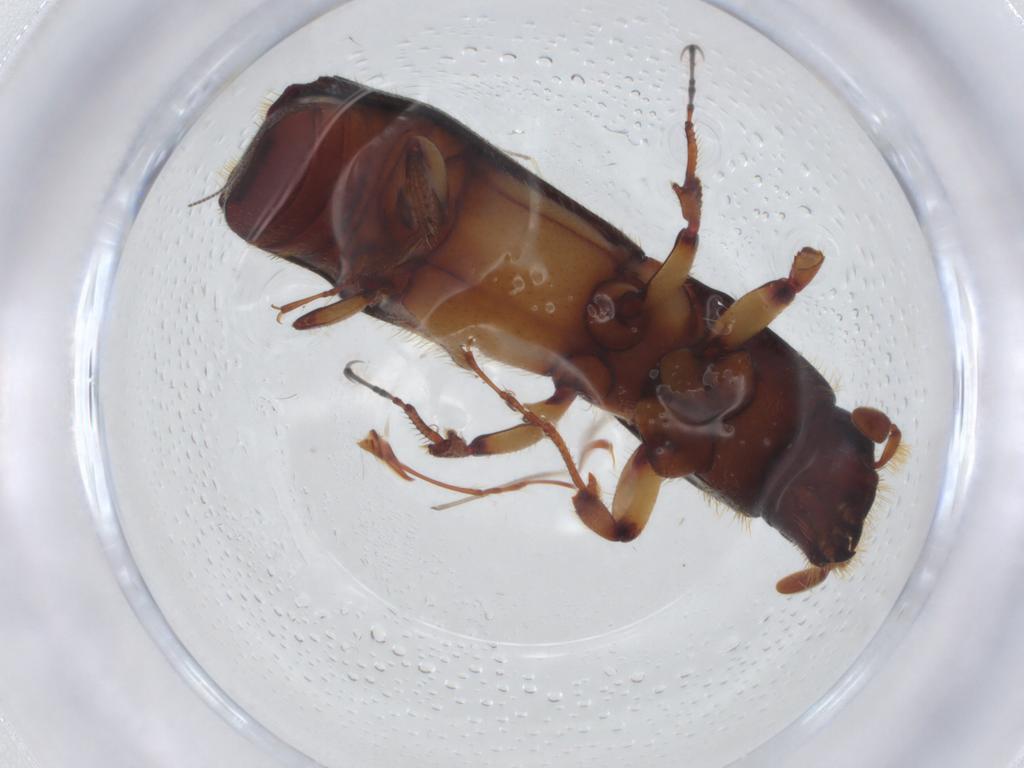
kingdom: Animalia
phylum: Arthropoda
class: Insecta
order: Coleoptera
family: Curculionidae
